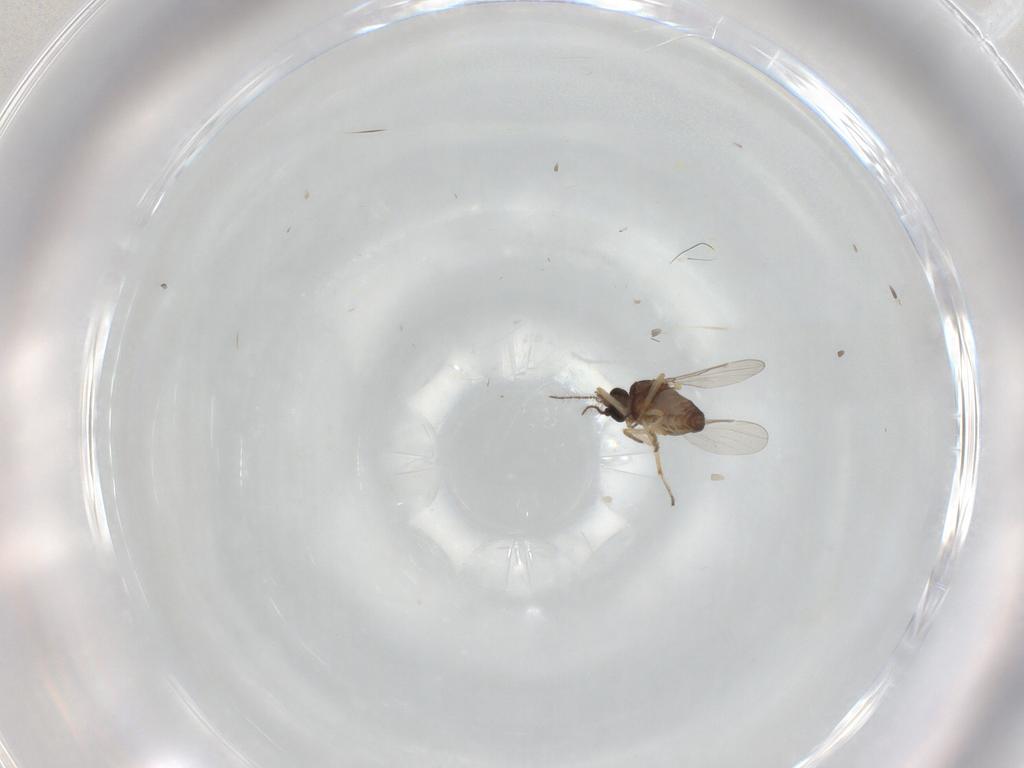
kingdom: Animalia
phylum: Arthropoda
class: Insecta
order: Diptera
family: Ceratopogonidae
